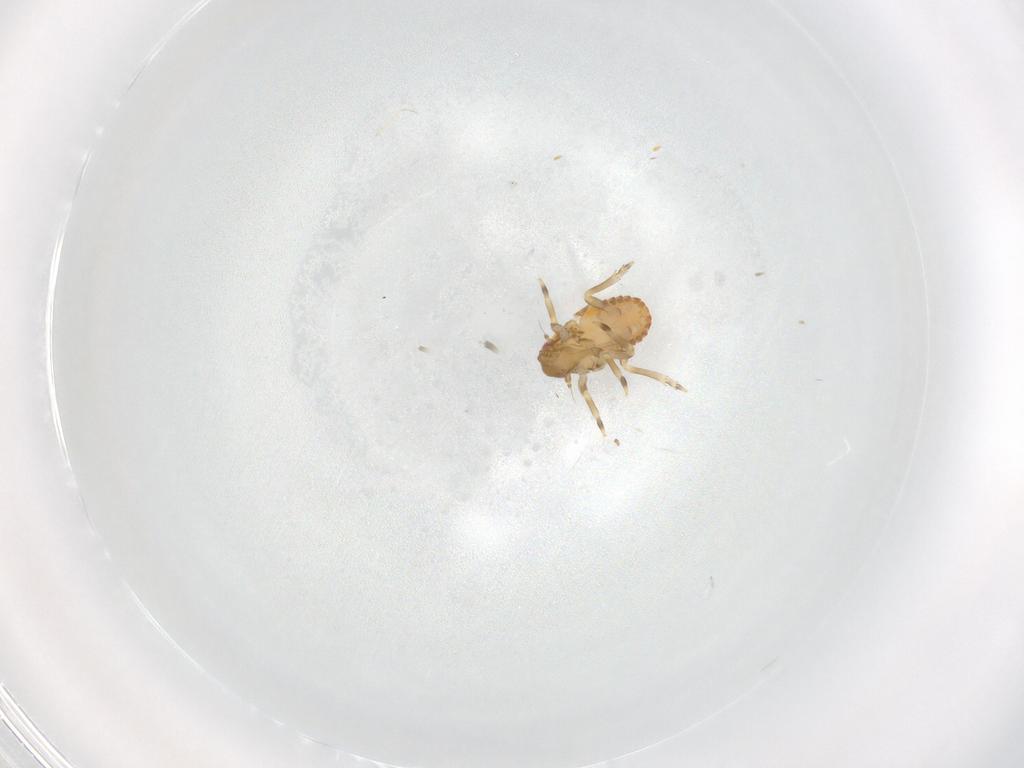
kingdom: Animalia
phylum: Arthropoda
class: Insecta
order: Hemiptera
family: Flatidae
